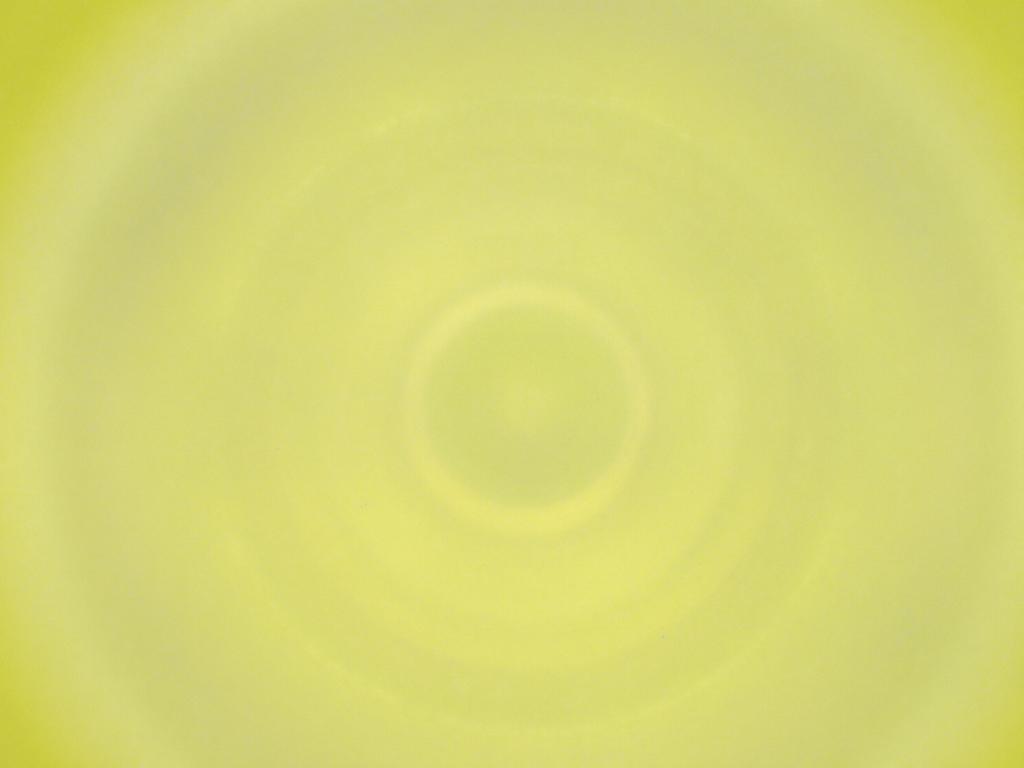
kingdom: Animalia
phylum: Arthropoda
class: Insecta
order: Diptera
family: Cecidomyiidae
